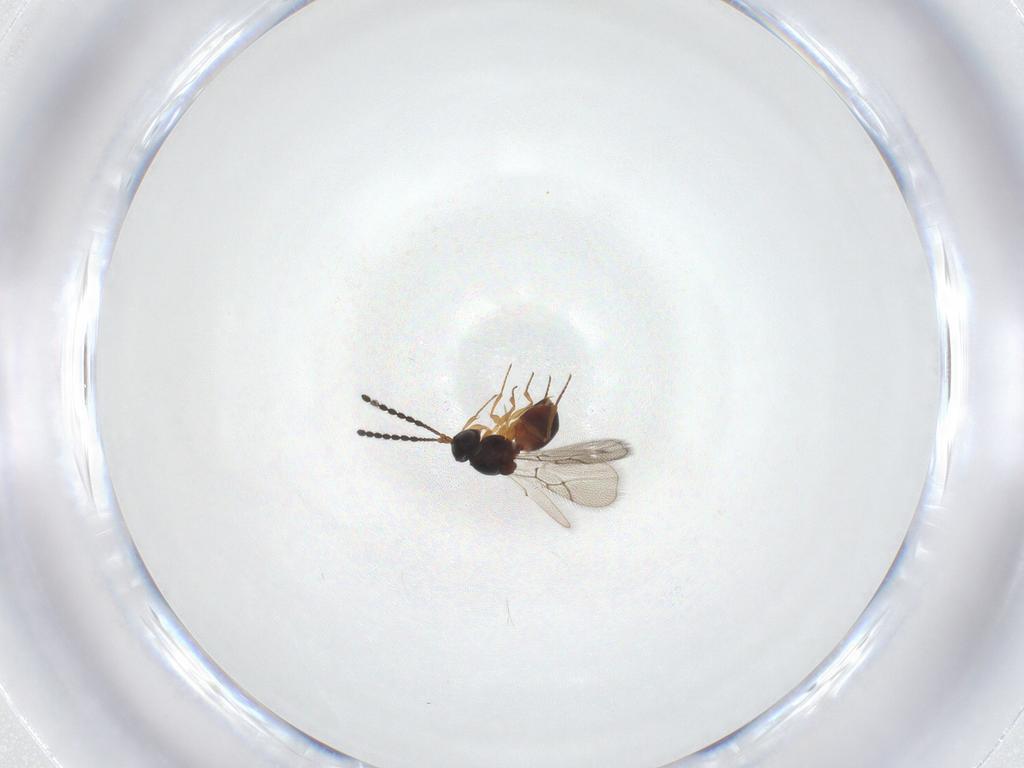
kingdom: Animalia
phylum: Arthropoda
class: Insecta
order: Hymenoptera
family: Figitidae
